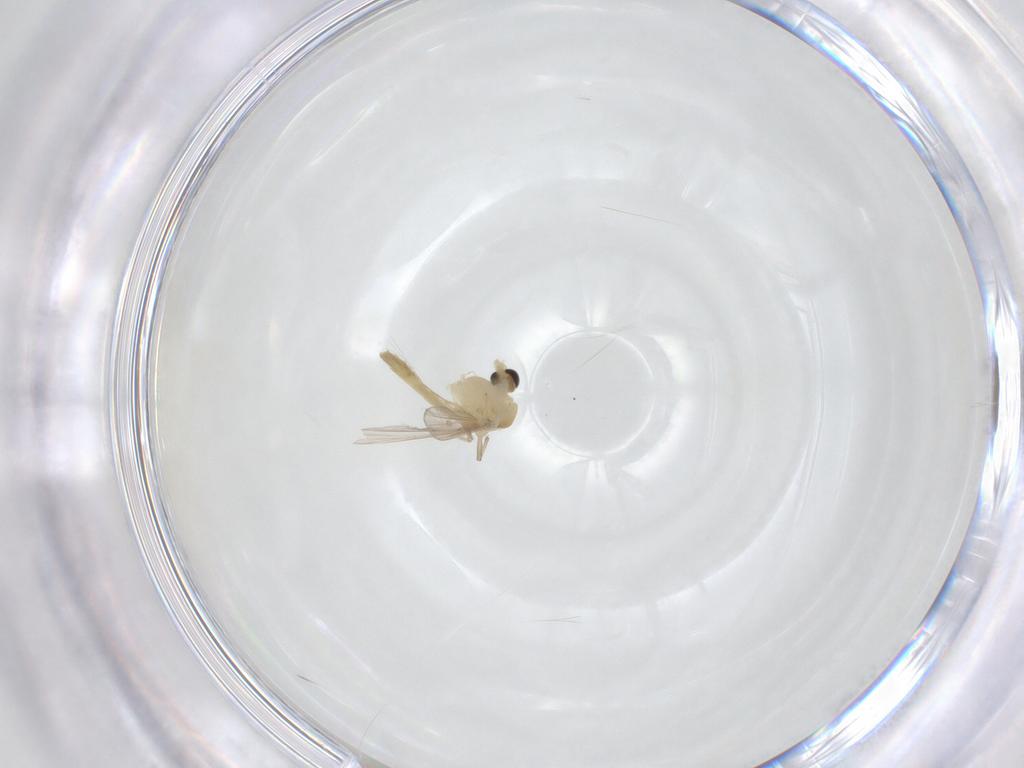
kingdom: Animalia
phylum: Arthropoda
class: Insecta
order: Diptera
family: Chironomidae
